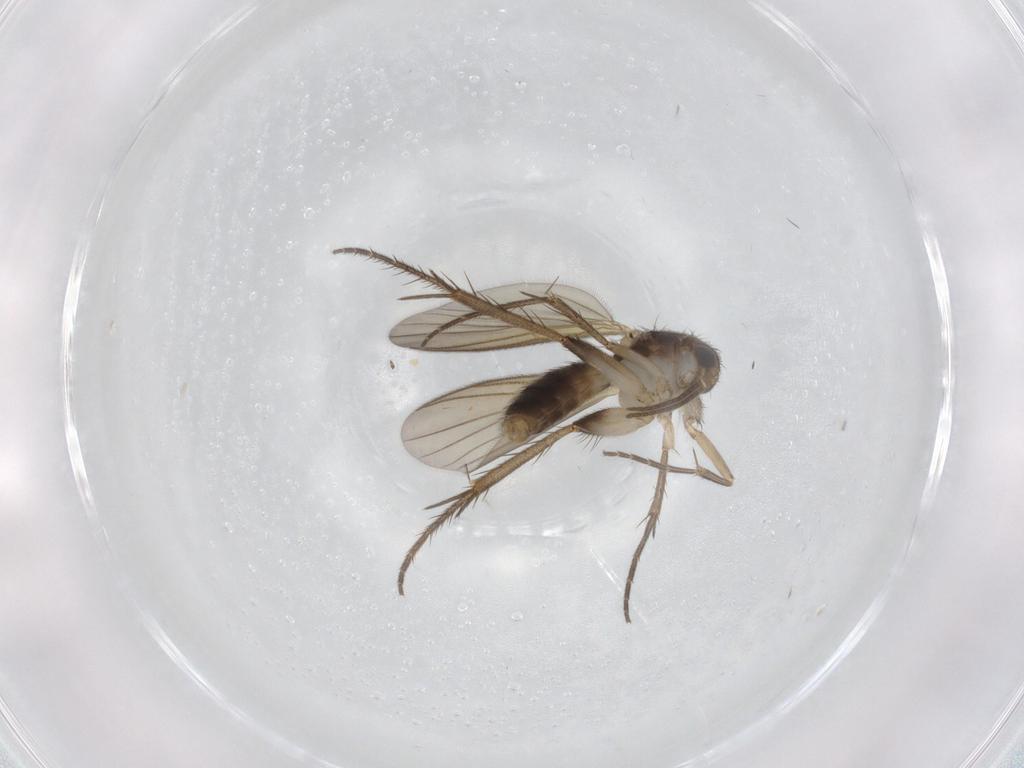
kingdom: Animalia
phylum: Arthropoda
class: Insecta
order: Diptera
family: Mycetophilidae
